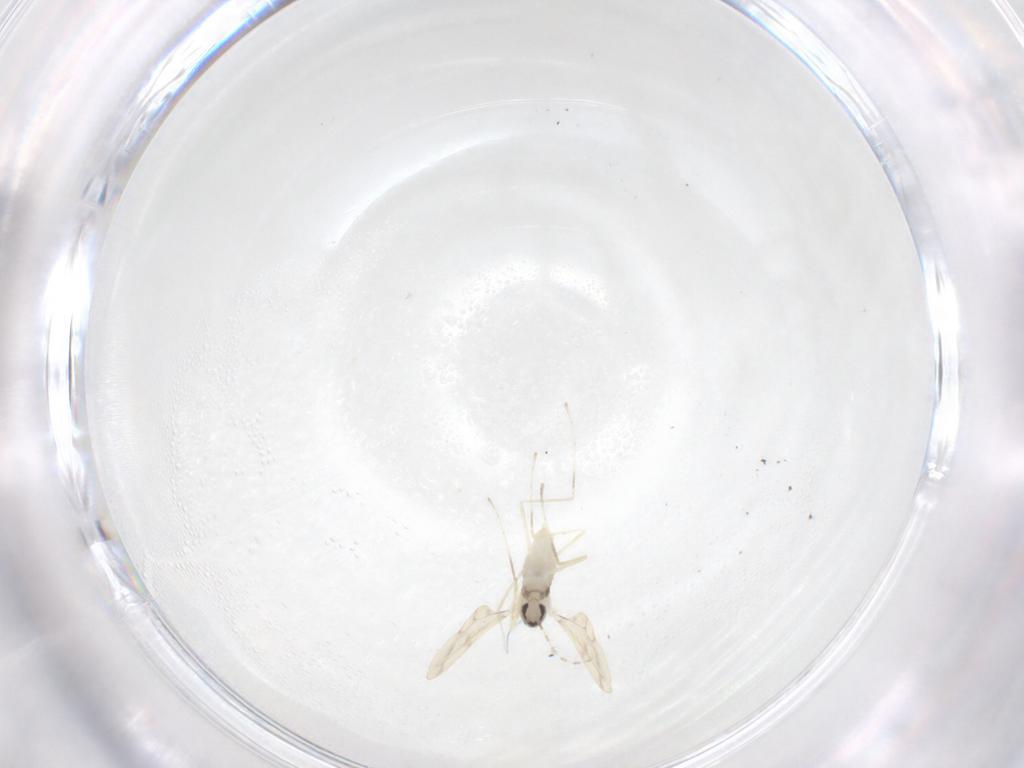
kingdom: Animalia
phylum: Arthropoda
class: Insecta
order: Diptera
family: Cecidomyiidae
